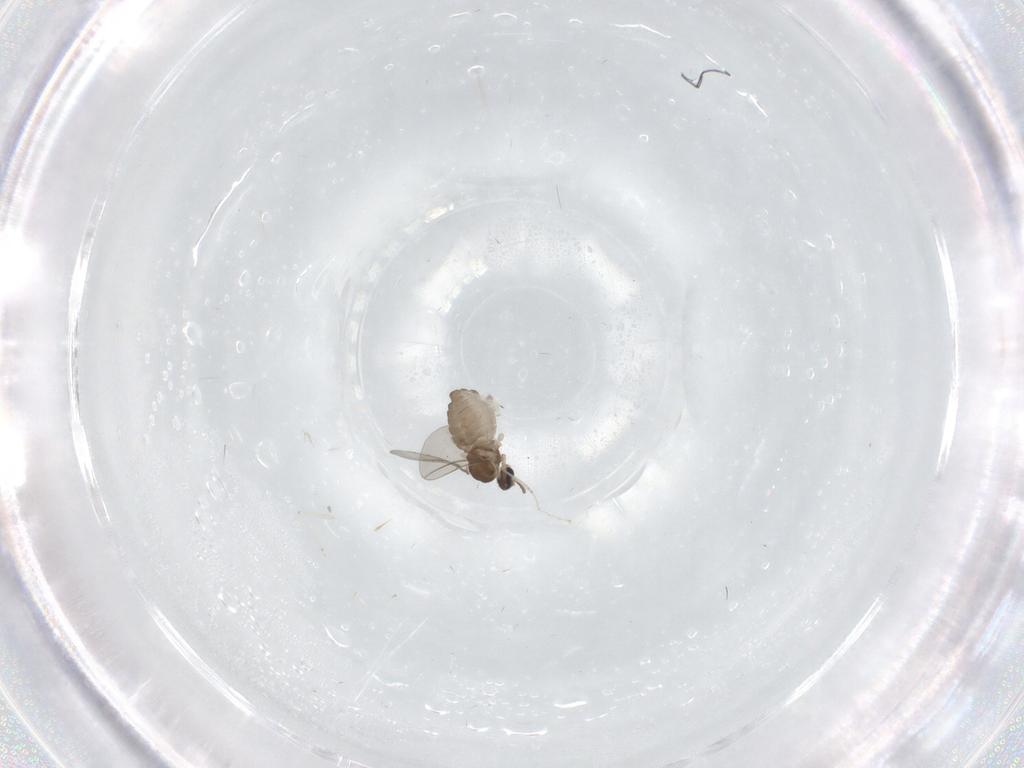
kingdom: Animalia
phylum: Arthropoda
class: Insecta
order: Diptera
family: Cecidomyiidae
